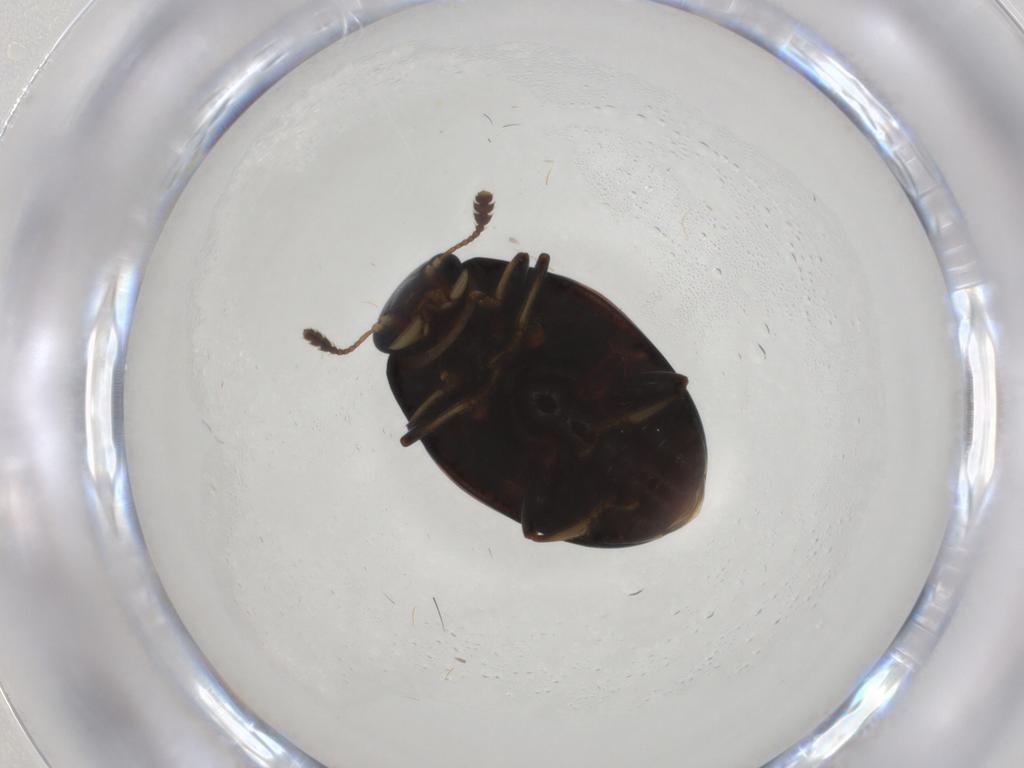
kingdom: Animalia
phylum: Arthropoda
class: Insecta
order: Coleoptera
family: Erotylidae
